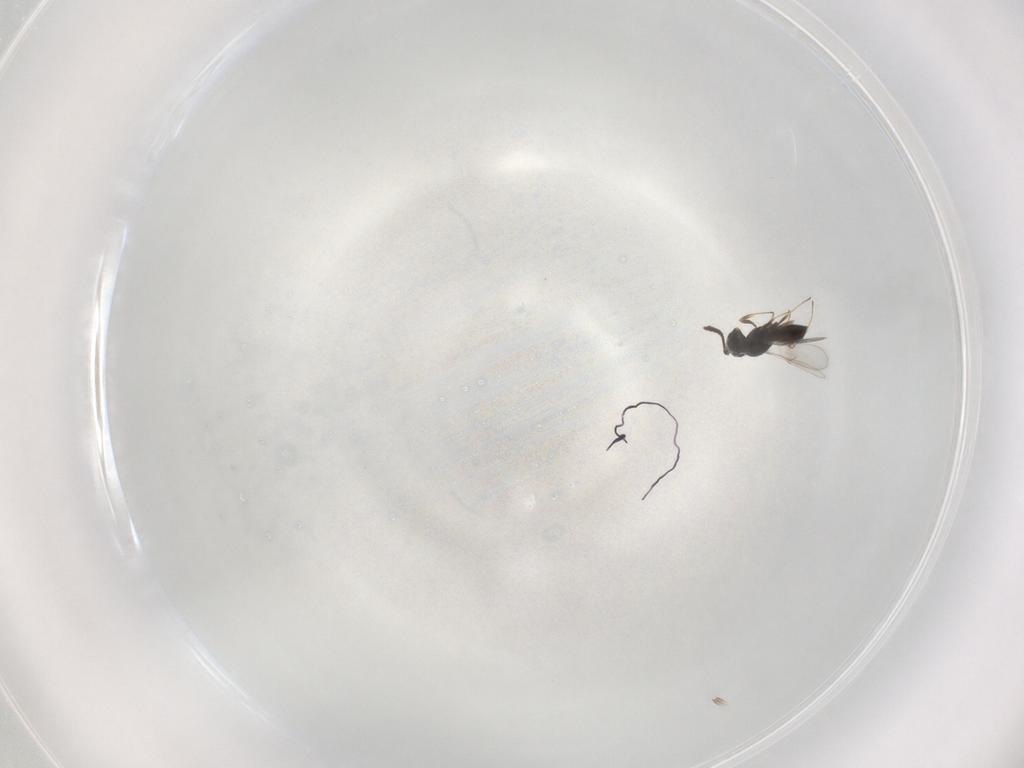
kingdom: Animalia
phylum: Arthropoda
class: Insecta
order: Hymenoptera
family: Scelionidae
